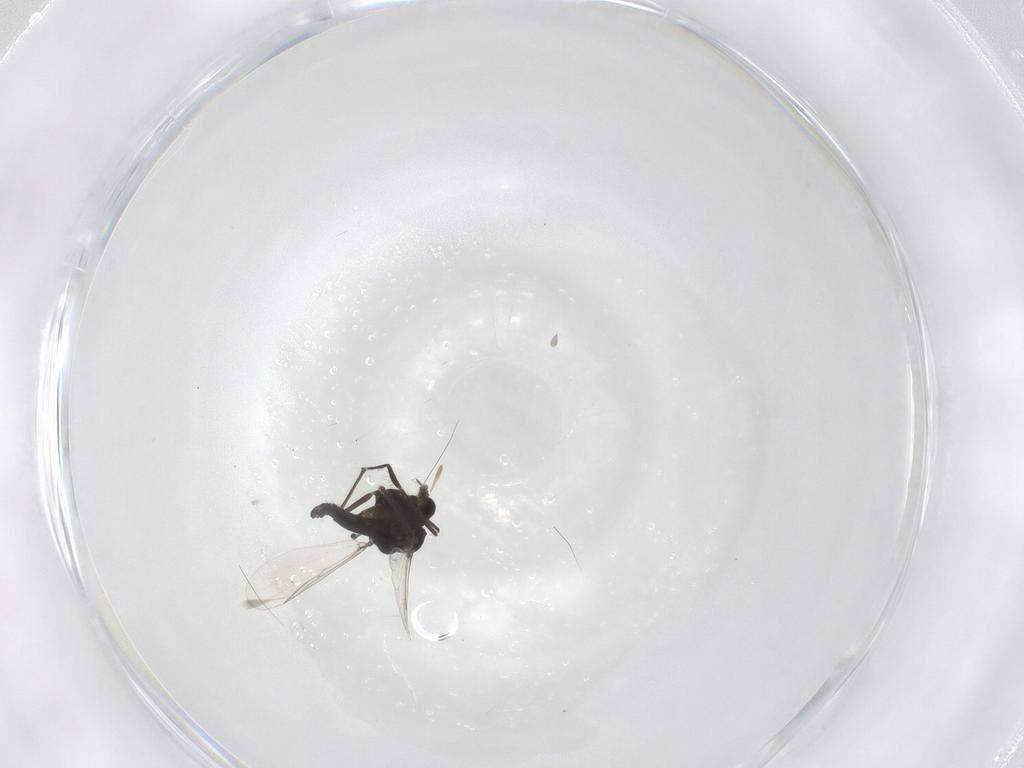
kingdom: Animalia
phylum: Arthropoda
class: Insecta
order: Diptera
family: Chironomidae
